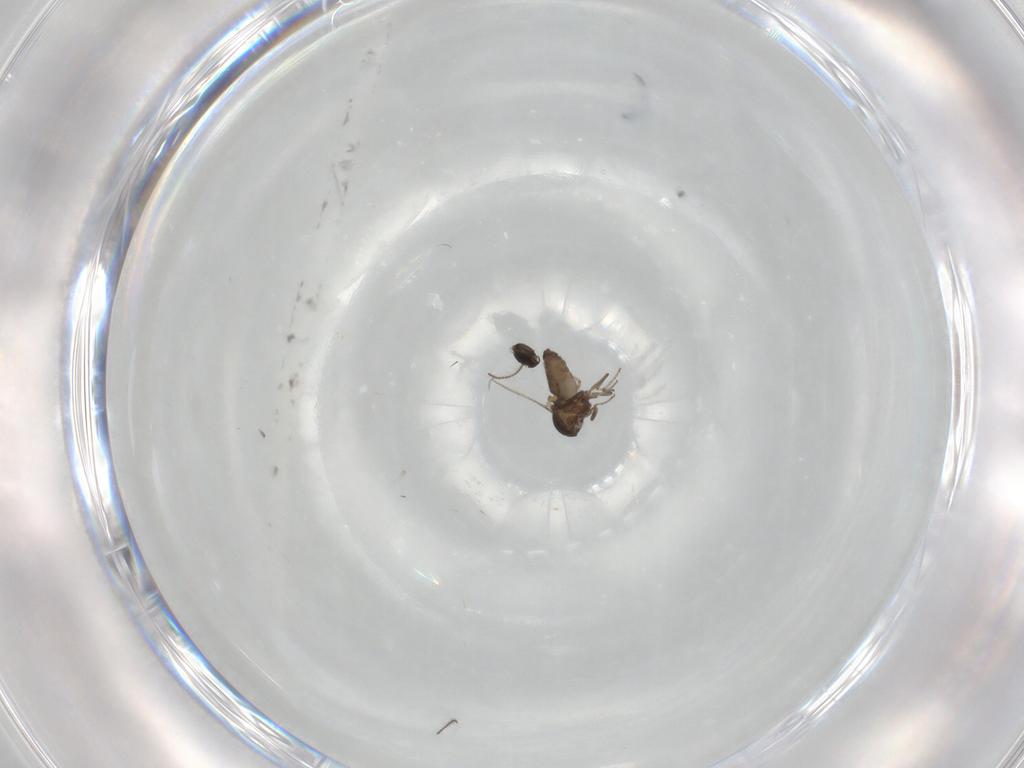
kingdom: Animalia
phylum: Arthropoda
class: Insecta
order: Diptera
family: Ceratopogonidae
